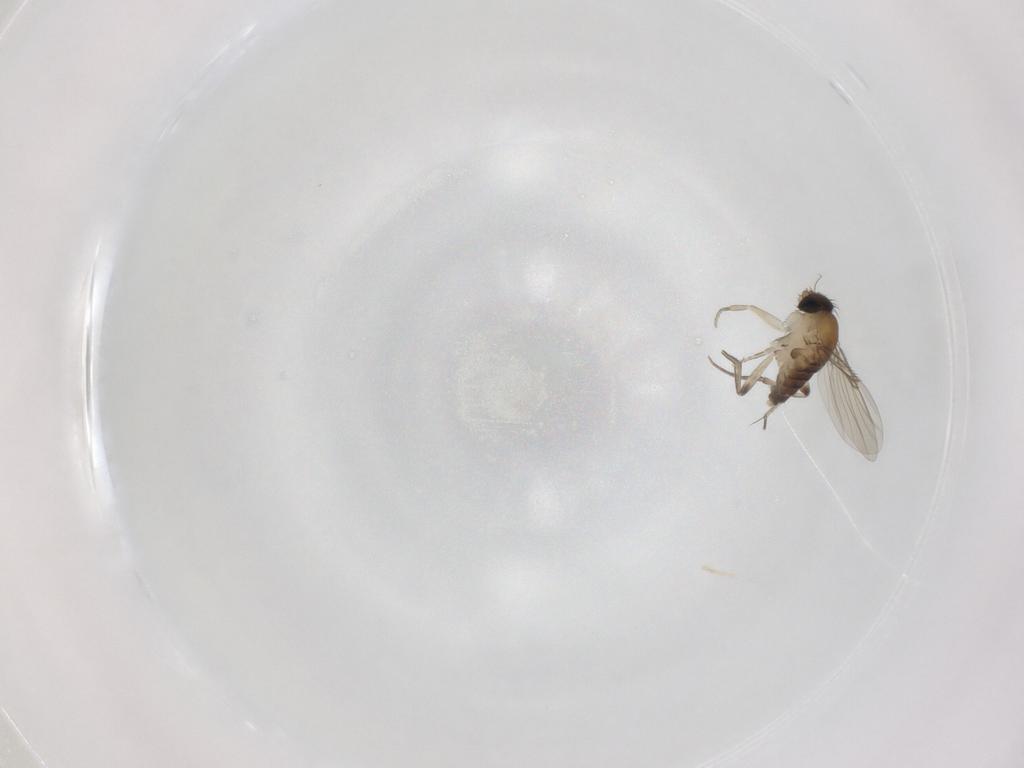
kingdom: Animalia
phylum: Arthropoda
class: Insecta
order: Diptera
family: Phoridae
